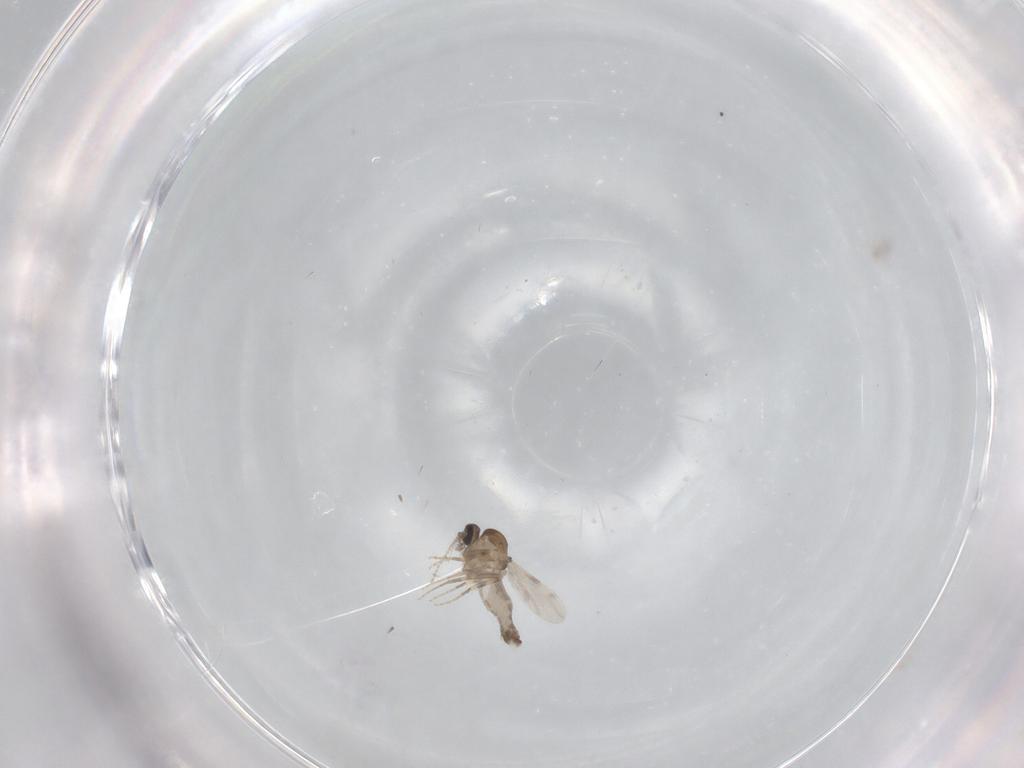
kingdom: Animalia
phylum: Arthropoda
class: Insecta
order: Diptera
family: Ceratopogonidae
